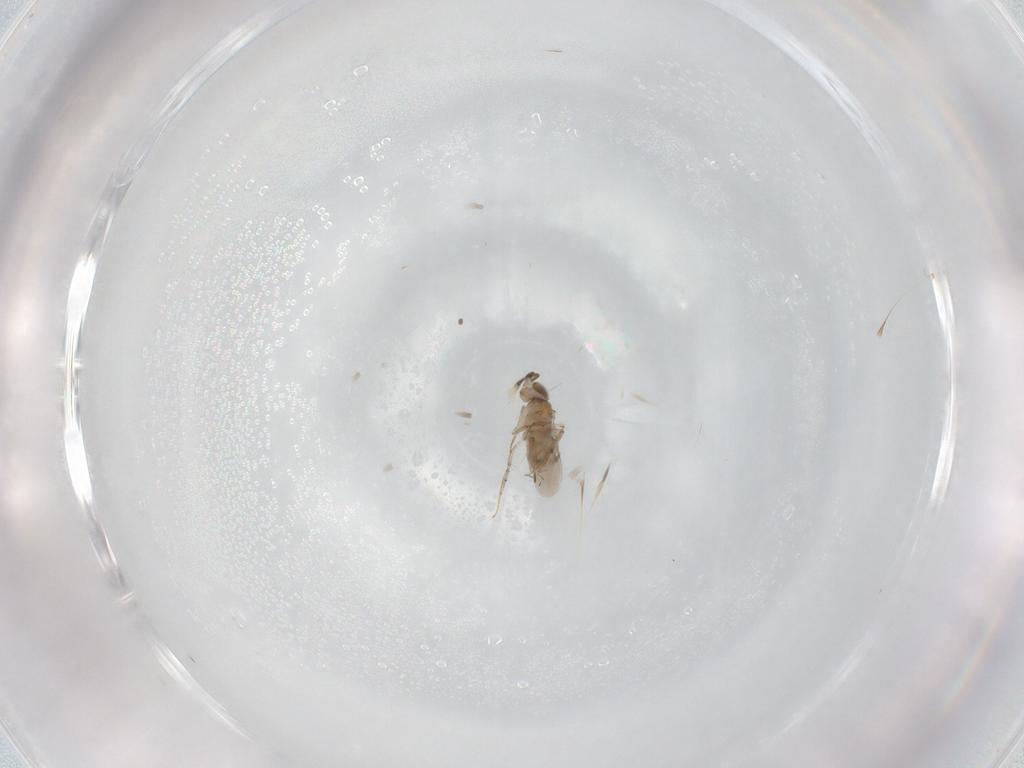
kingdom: Animalia
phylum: Arthropoda
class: Insecta
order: Hymenoptera
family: Encyrtidae
